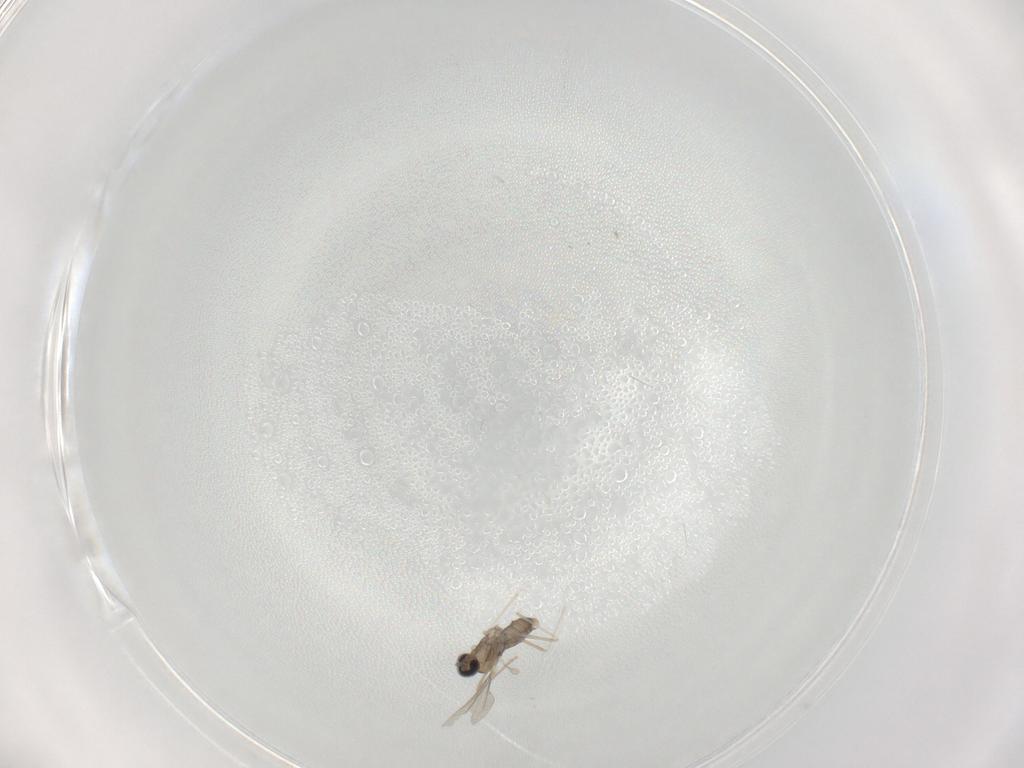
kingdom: Animalia
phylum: Arthropoda
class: Insecta
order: Diptera
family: Cecidomyiidae
